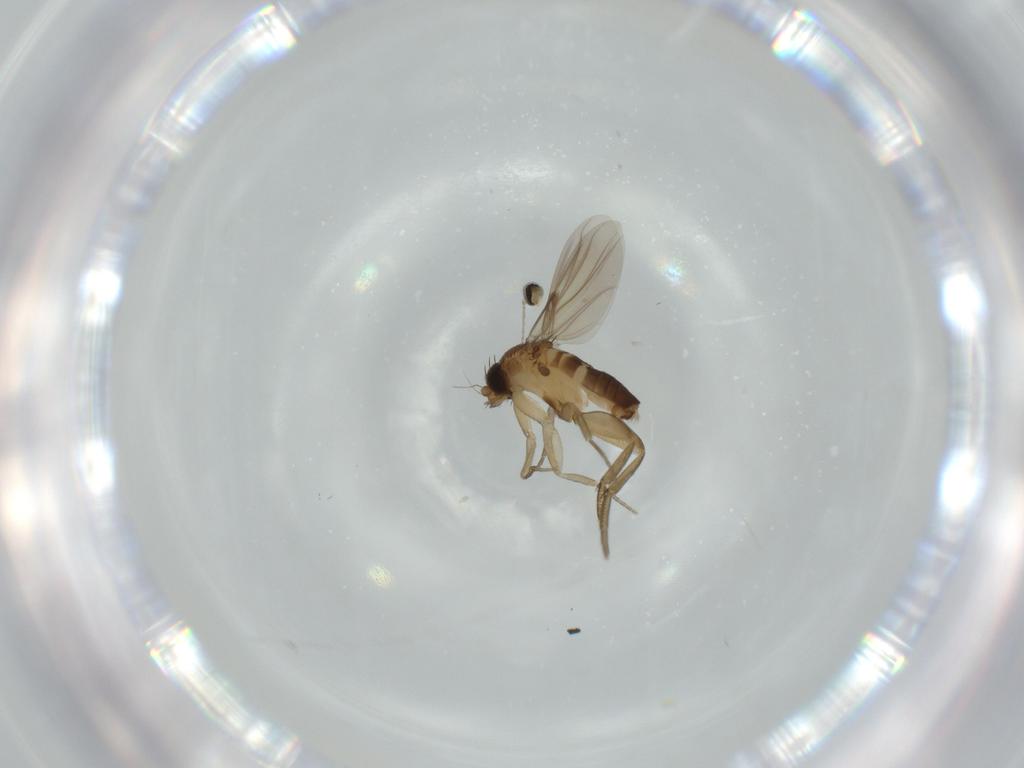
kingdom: Animalia
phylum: Arthropoda
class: Insecta
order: Diptera
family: Phoridae
